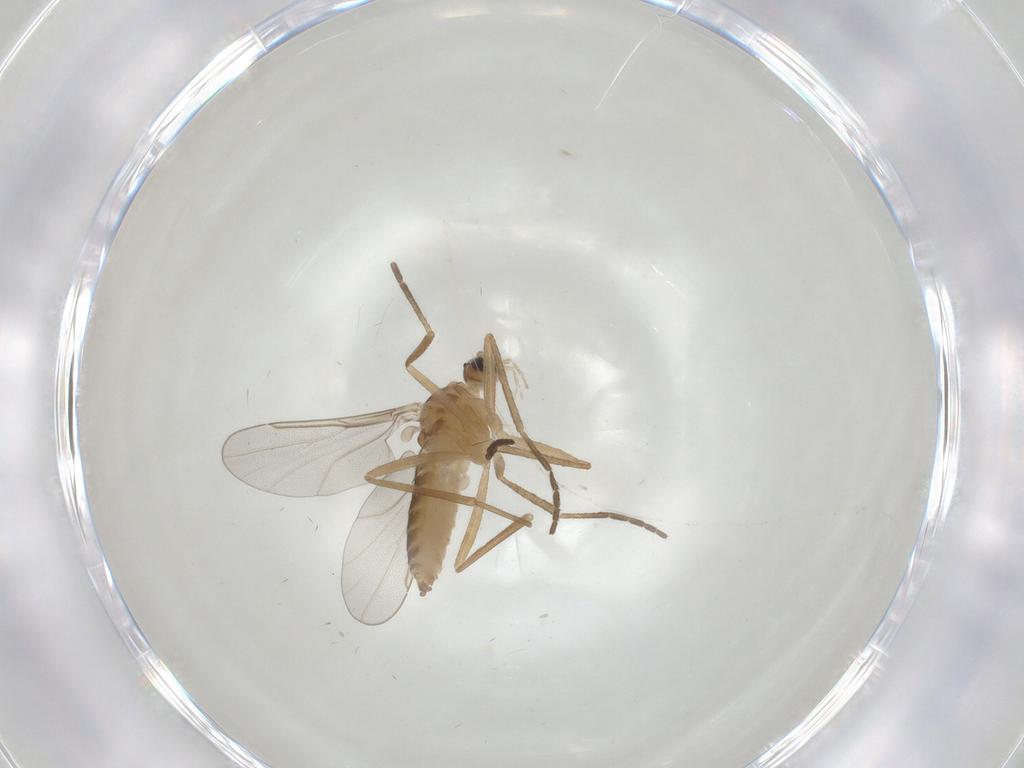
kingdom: Animalia
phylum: Arthropoda
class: Insecta
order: Diptera
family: Cecidomyiidae
